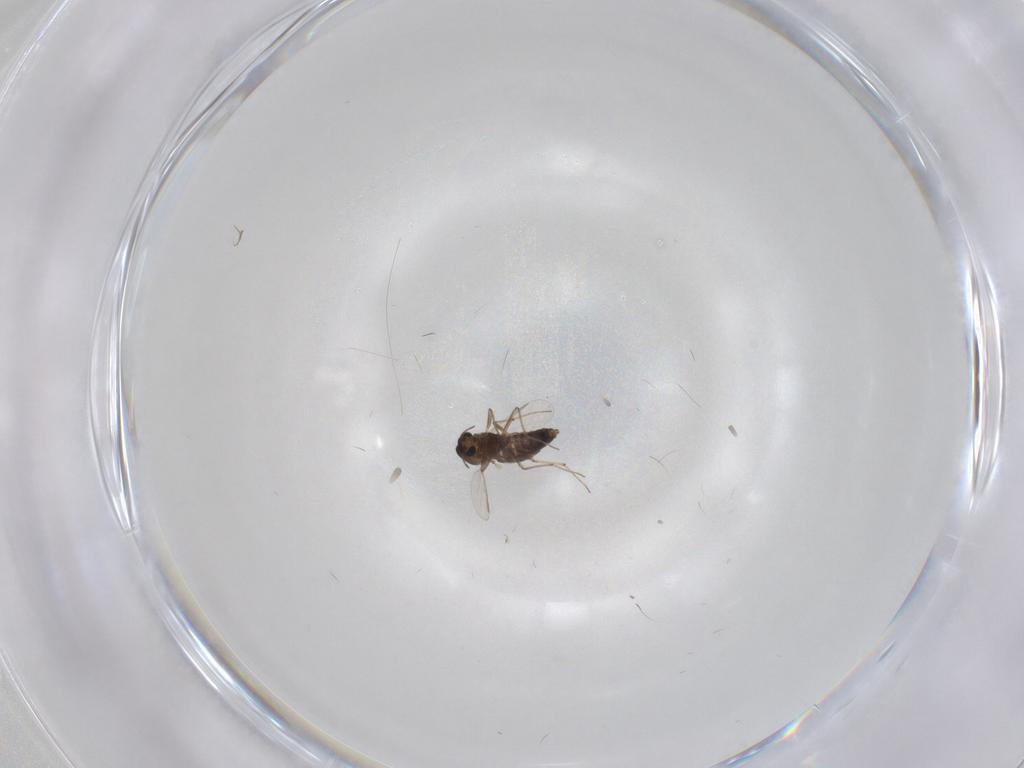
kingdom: Animalia
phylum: Arthropoda
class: Insecta
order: Diptera
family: Chironomidae
